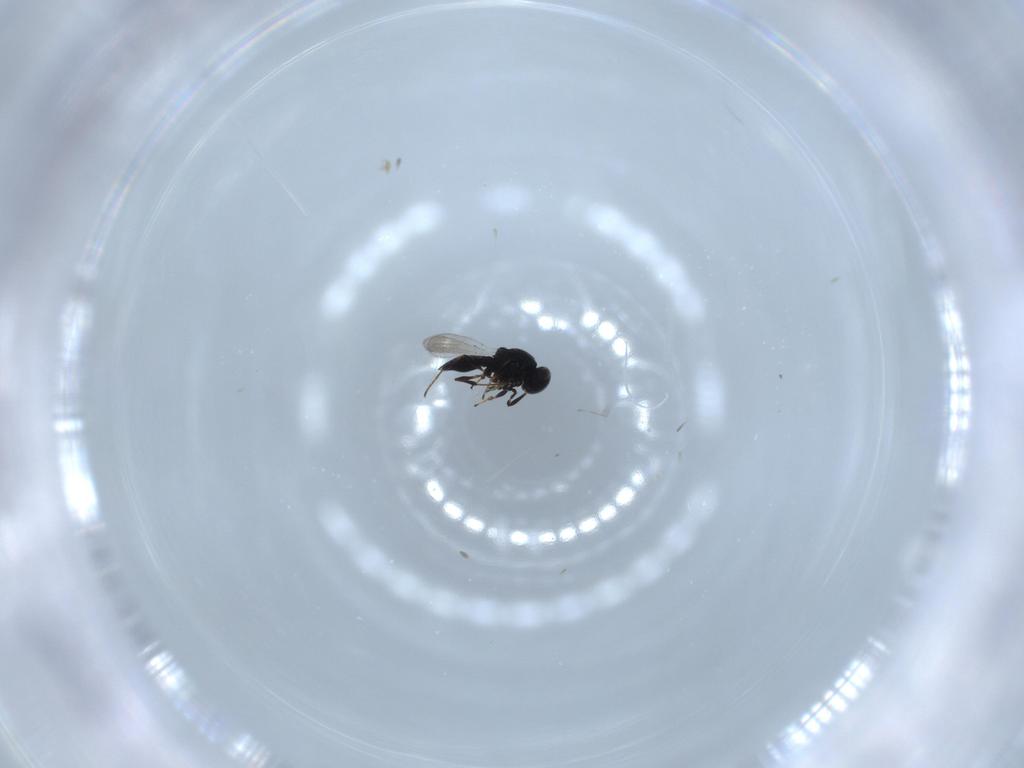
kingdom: Animalia
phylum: Arthropoda
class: Insecta
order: Hymenoptera
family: Platygastridae
